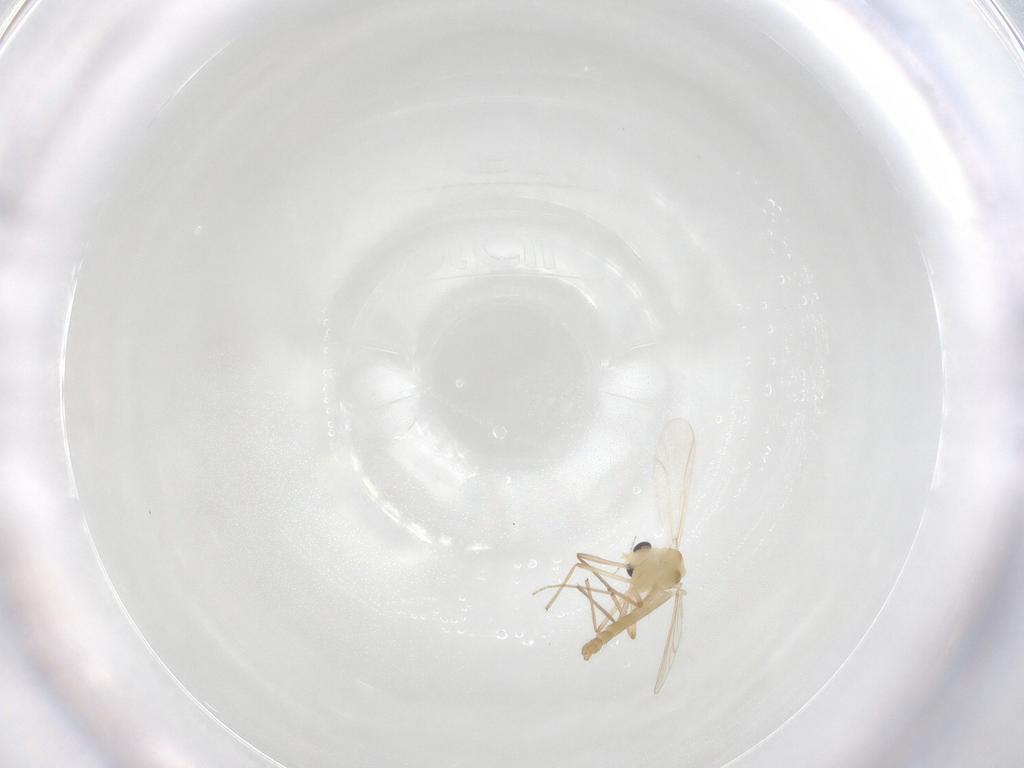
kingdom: Animalia
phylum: Arthropoda
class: Insecta
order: Diptera
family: Chironomidae
